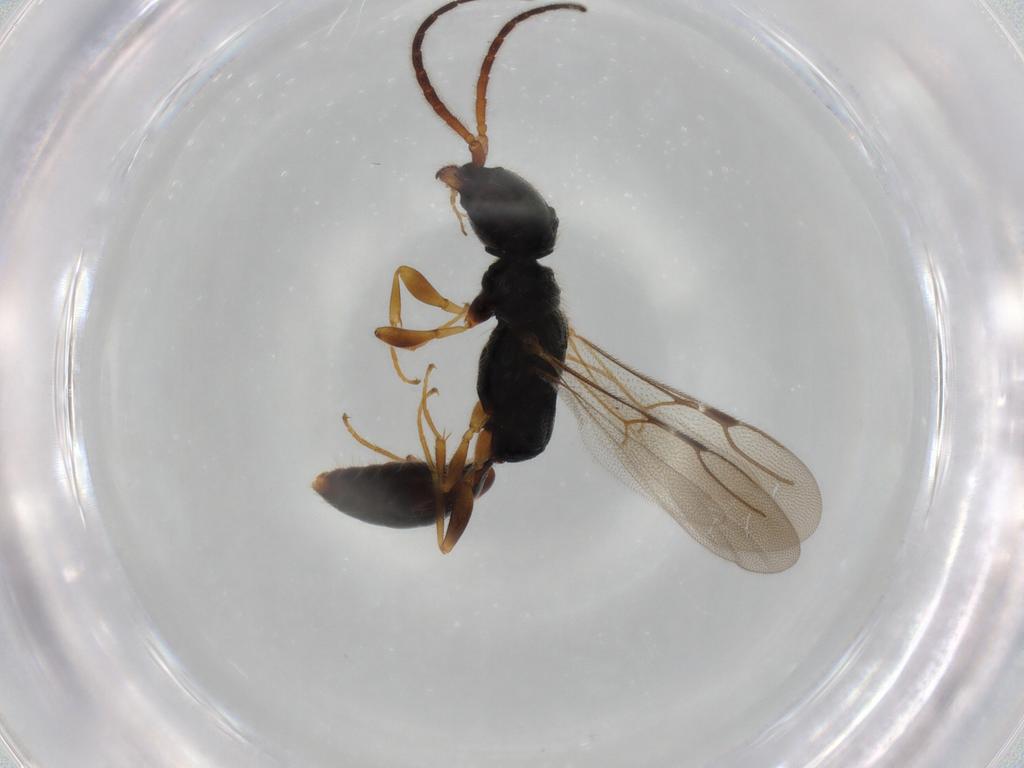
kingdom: Animalia
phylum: Arthropoda
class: Insecta
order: Hymenoptera
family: Bethylidae
